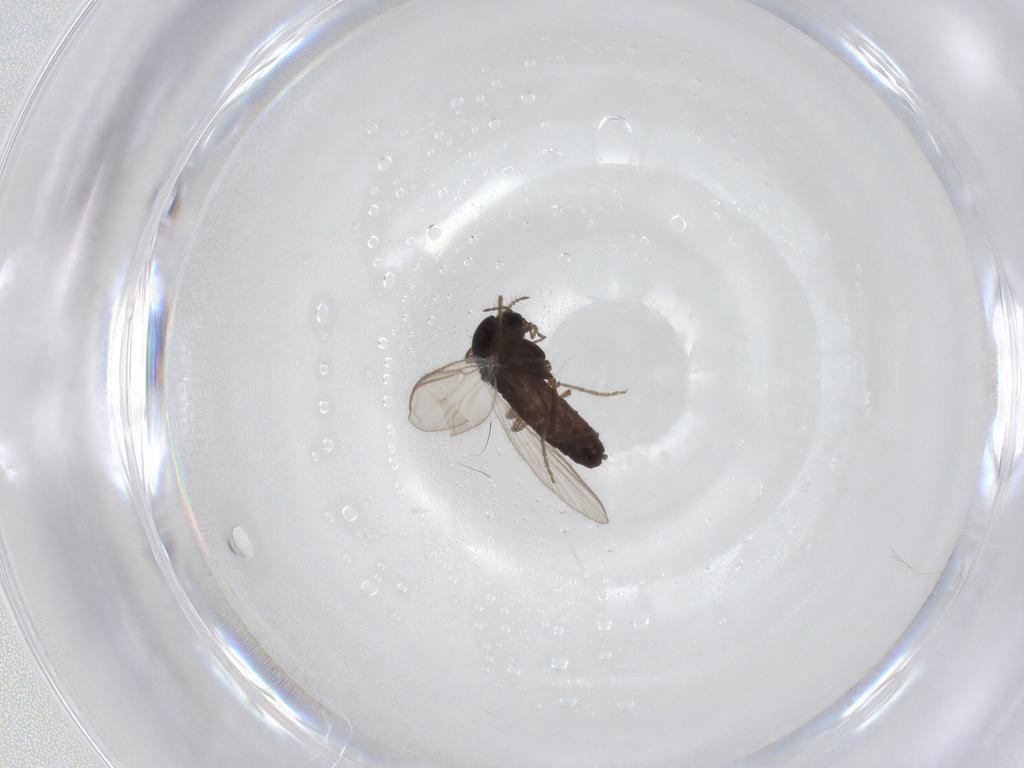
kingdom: Animalia
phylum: Arthropoda
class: Insecta
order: Diptera
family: Chironomidae
